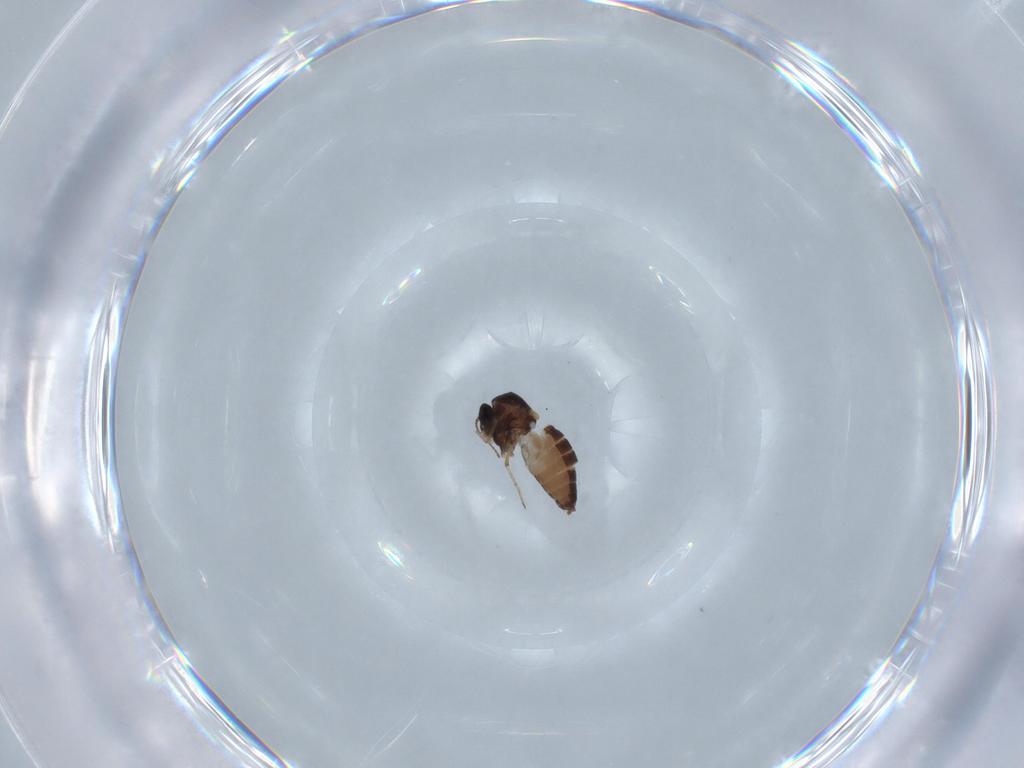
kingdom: Animalia
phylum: Arthropoda
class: Insecta
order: Diptera
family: Ceratopogonidae
